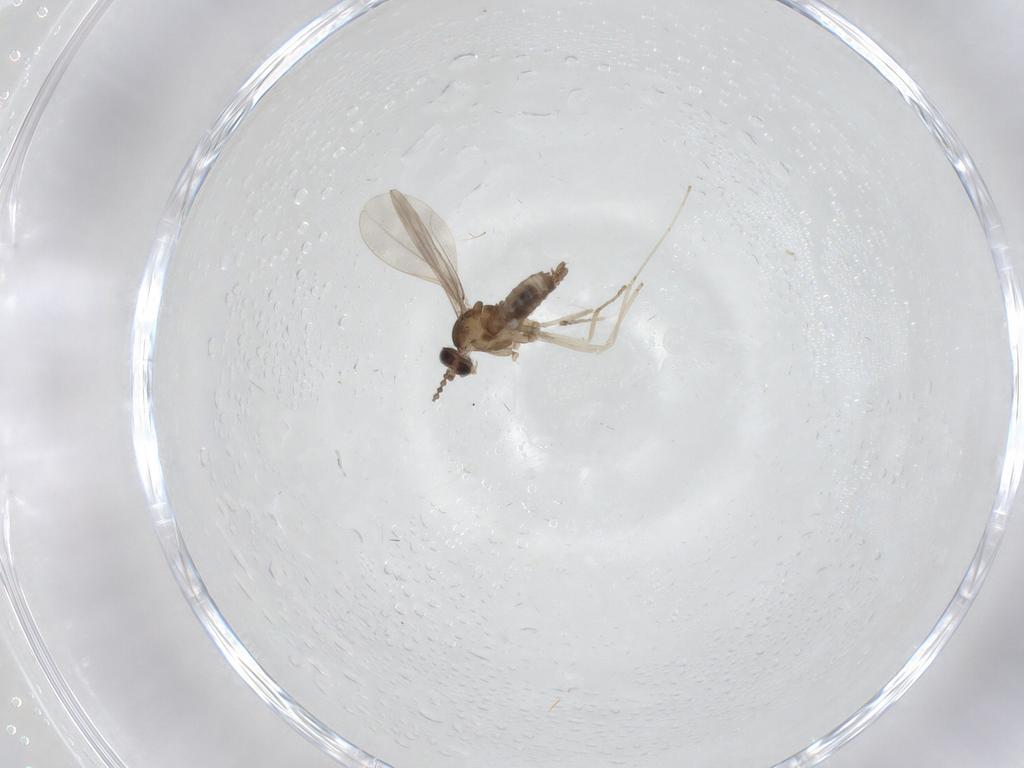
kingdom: Animalia
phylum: Arthropoda
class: Insecta
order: Diptera
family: Cecidomyiidae
